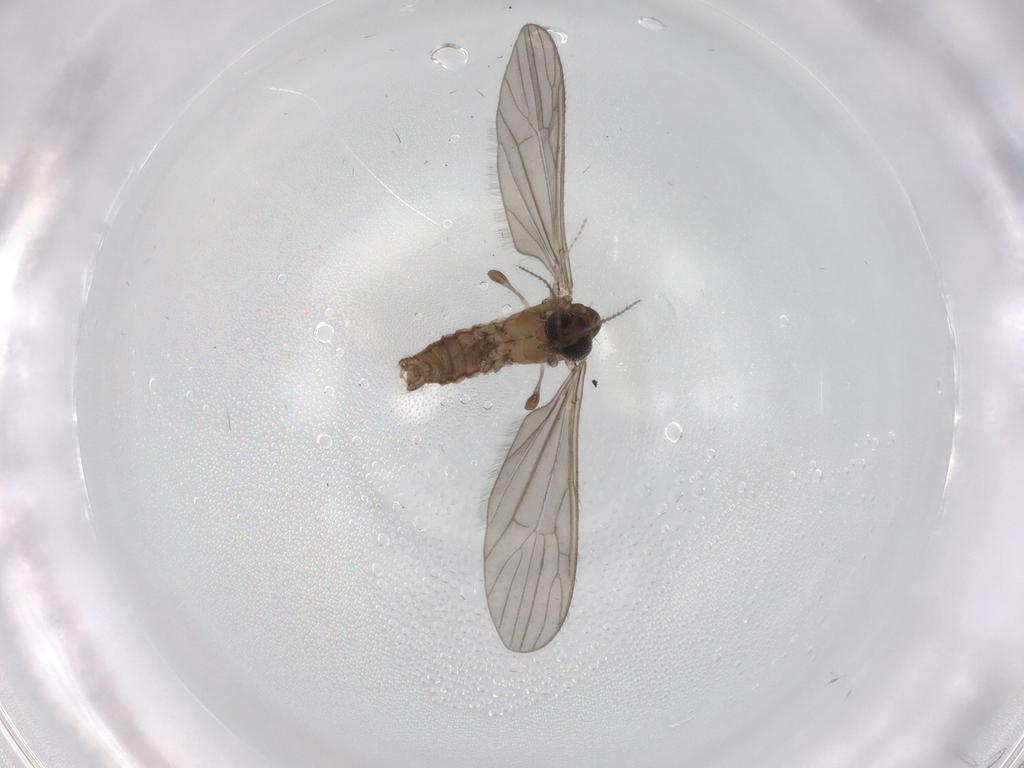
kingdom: Animalia
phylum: Arthropoda
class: Insecta
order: Diptera
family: Limoniidae
